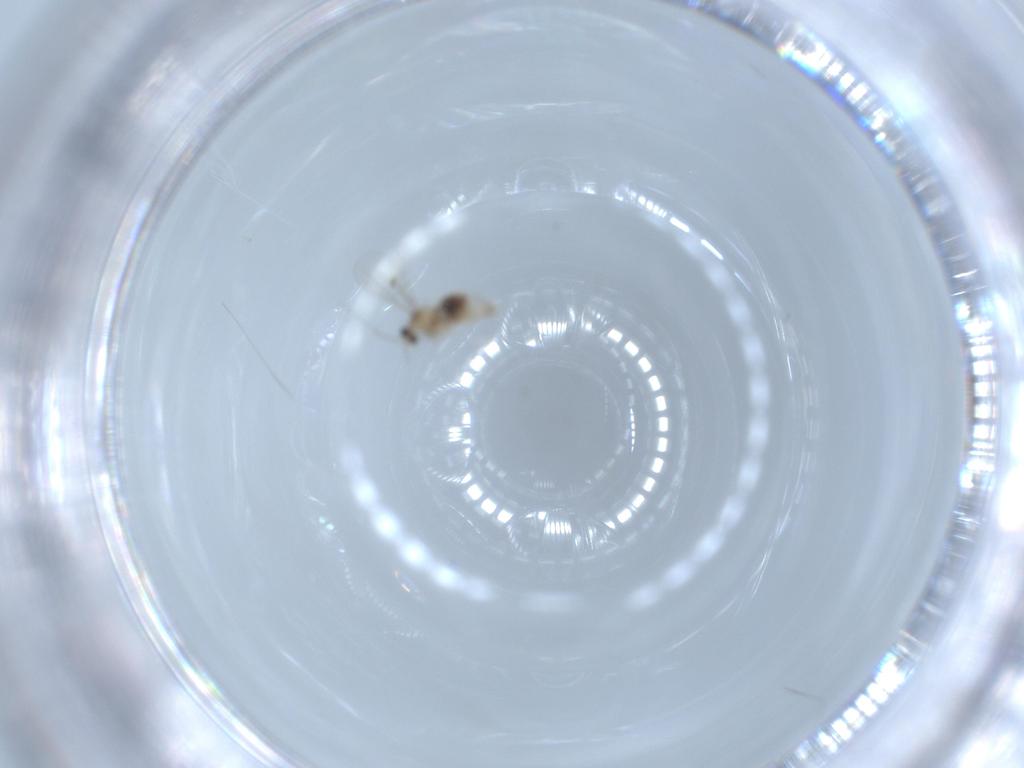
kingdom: Animalia
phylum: Arthropoda
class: Insecta
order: Diptera
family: Cecidomyiidae
